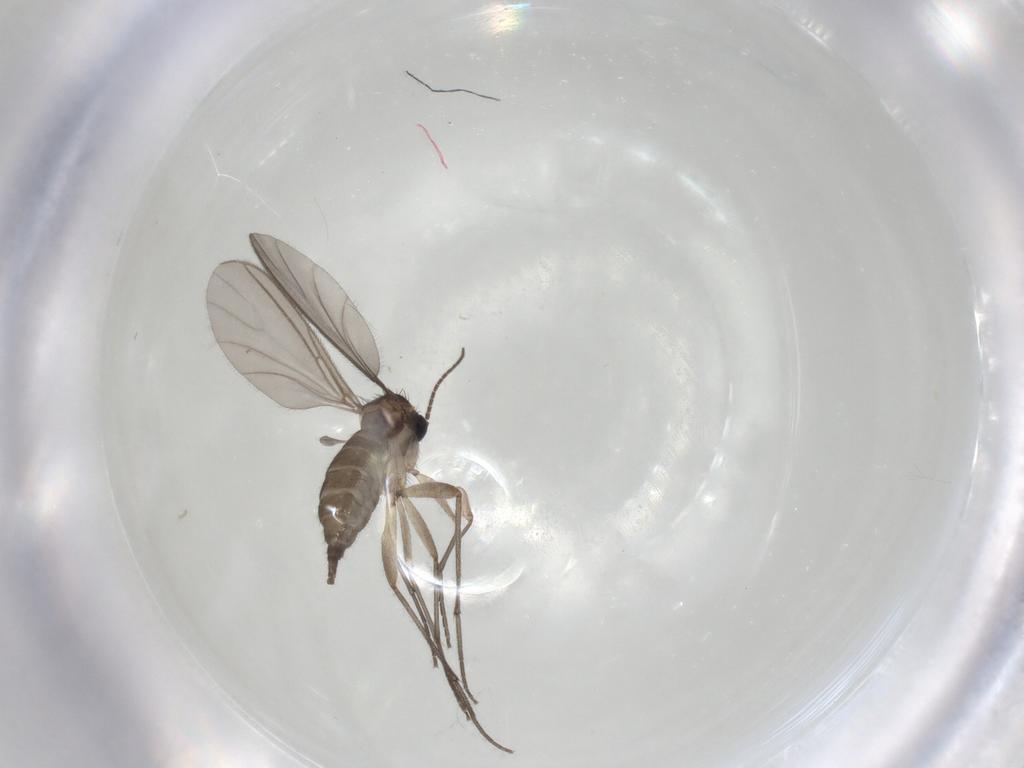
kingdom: Animalia
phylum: Arthropoda
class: Insecta
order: Diptera
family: Sciaridae
